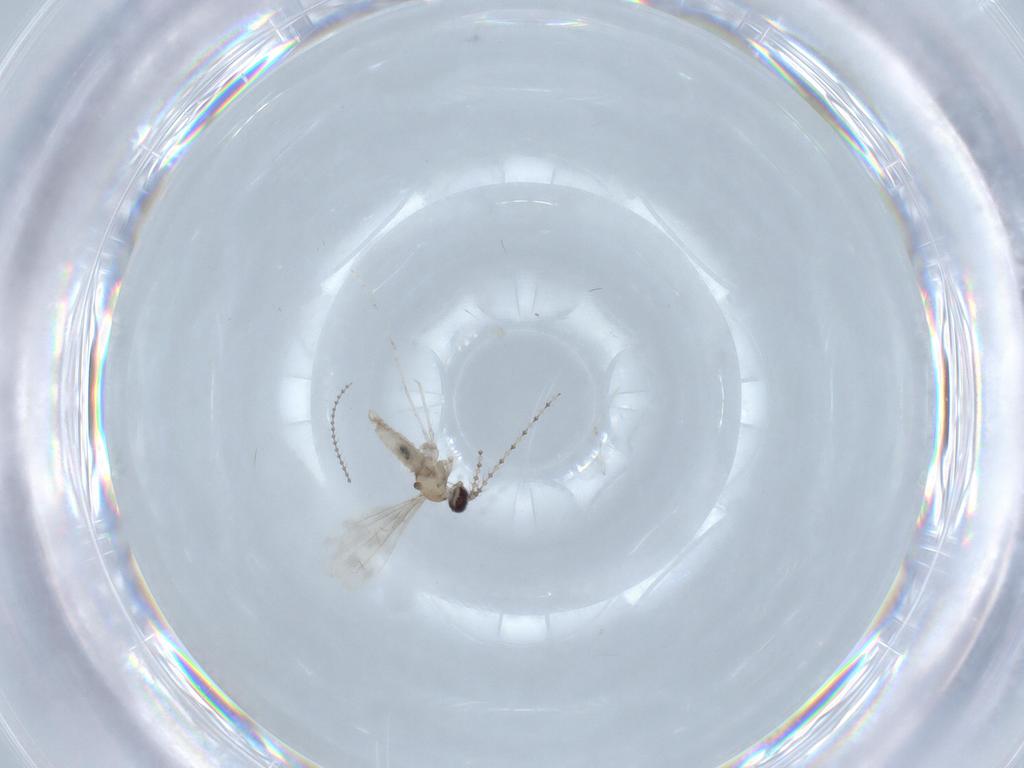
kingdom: Animalia
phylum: Arthropoda
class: Insecta
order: Diptera
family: Cecidomyiidae
